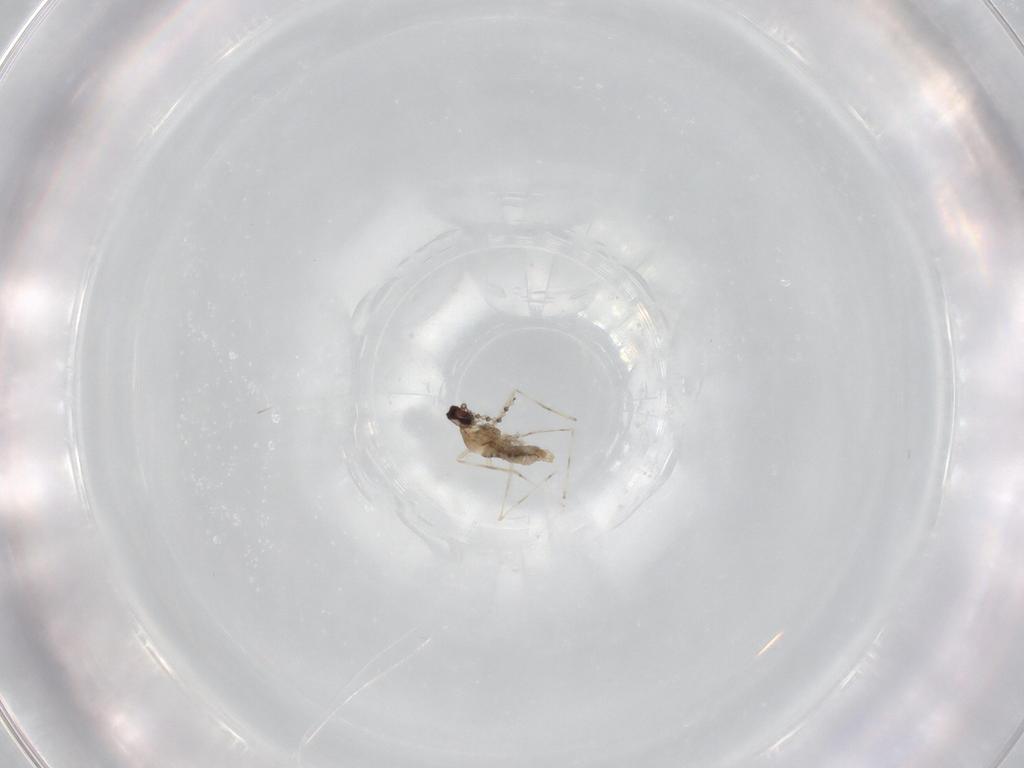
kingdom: Animalia
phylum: Arthropoda
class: Insecta
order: Diptera
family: Cecidomyiidae
